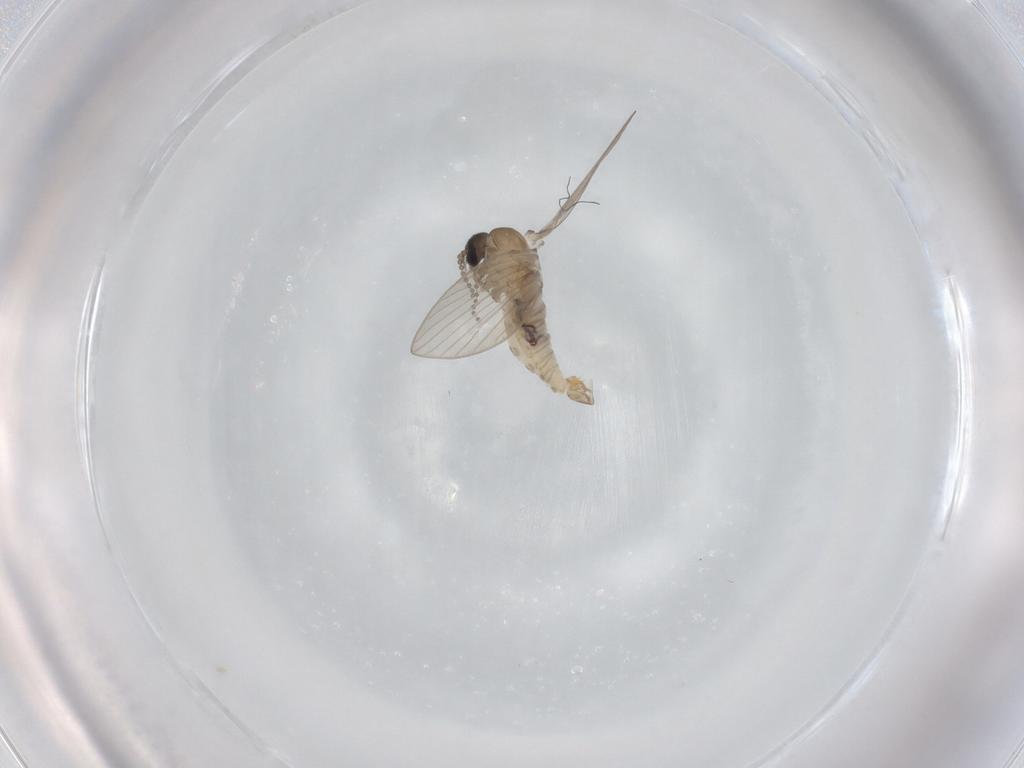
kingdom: Animalia
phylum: Arthropoda
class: Insecta
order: Diptera
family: Psychodidae
